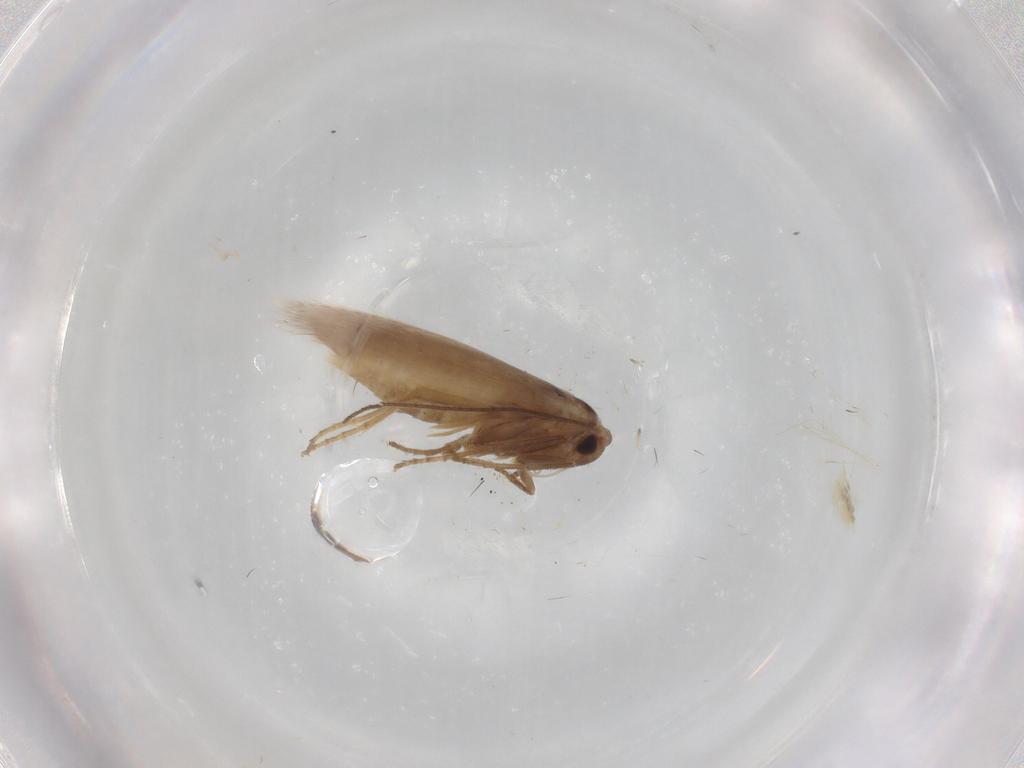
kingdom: Animalia
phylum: Arthropoda
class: Insecta
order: Lepidoptera
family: Bucculatricidae
